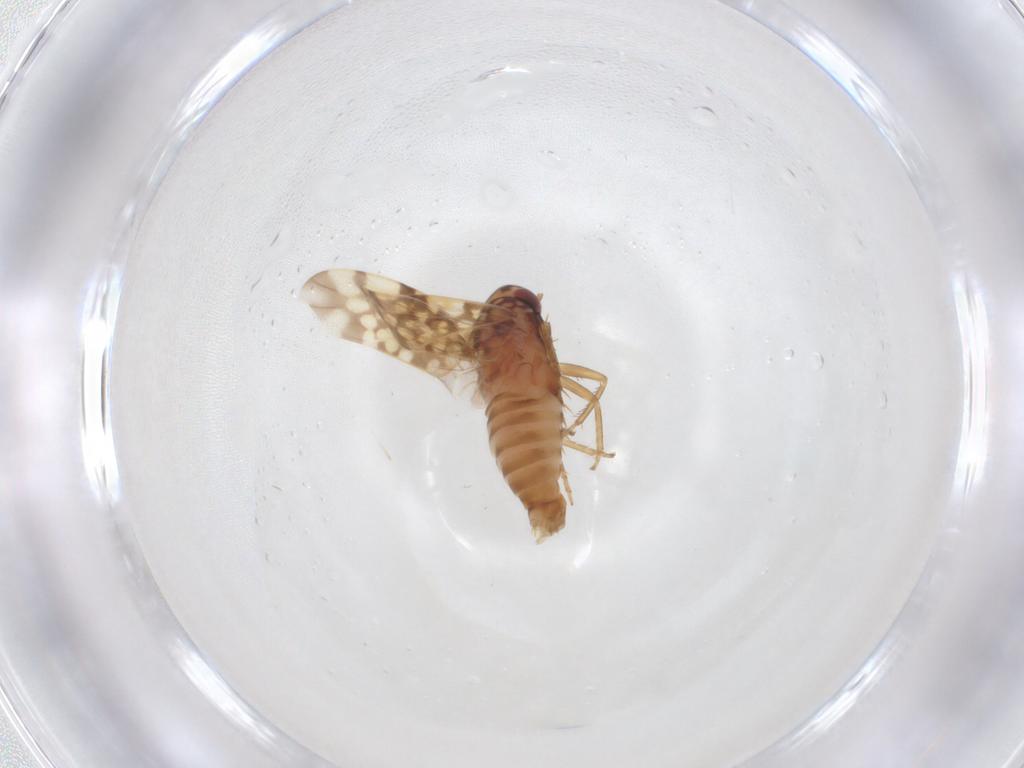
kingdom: Animalia
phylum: Arthropoda
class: Insecta
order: Hemiptera
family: Cicadellidae
